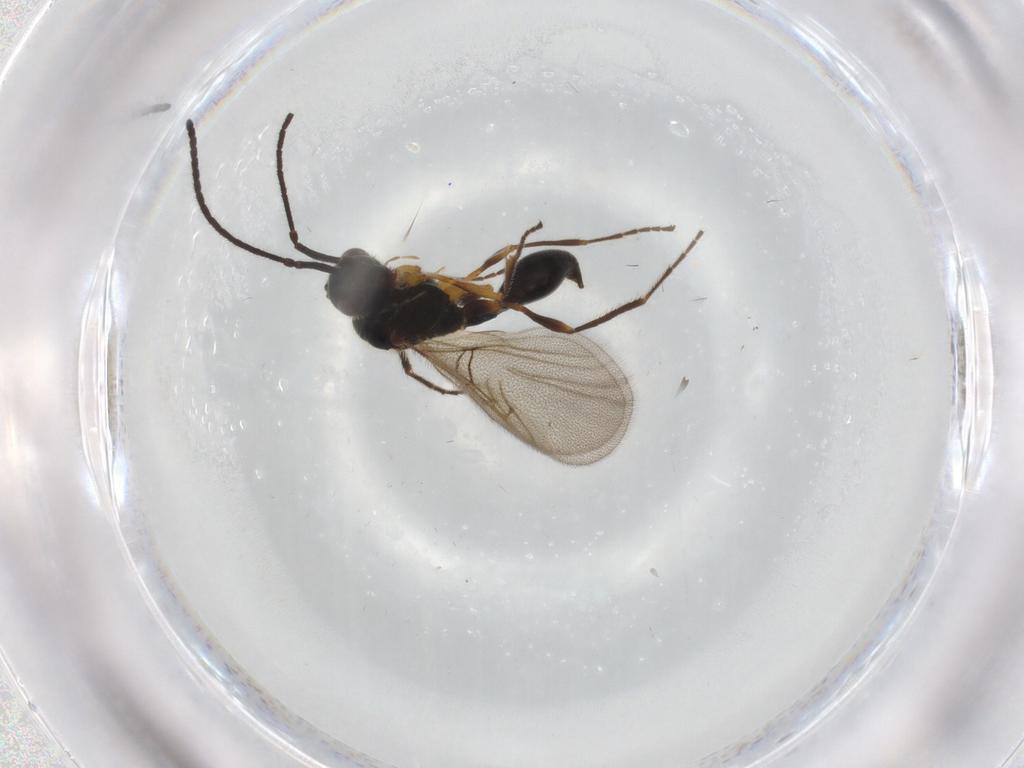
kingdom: Animalia
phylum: Arthropoda
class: Insecta
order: Hymenoptera
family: Diapriidae
